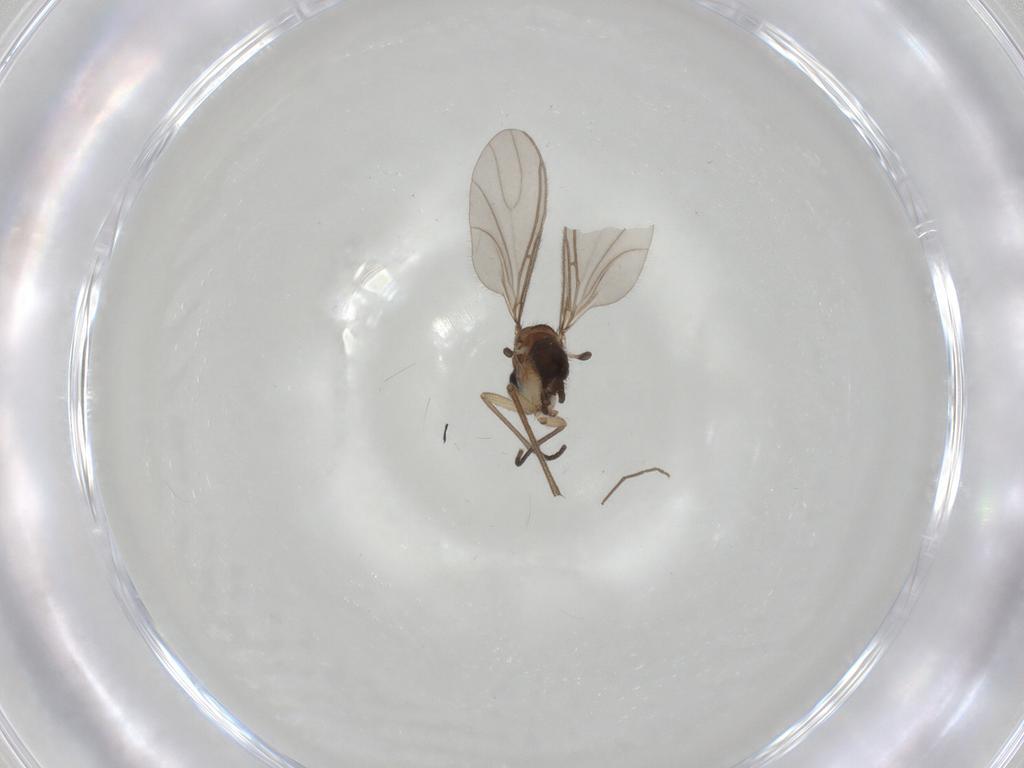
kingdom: Animalia
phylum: Arthropoda
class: Insecta
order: Diptera
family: Sciaridae
